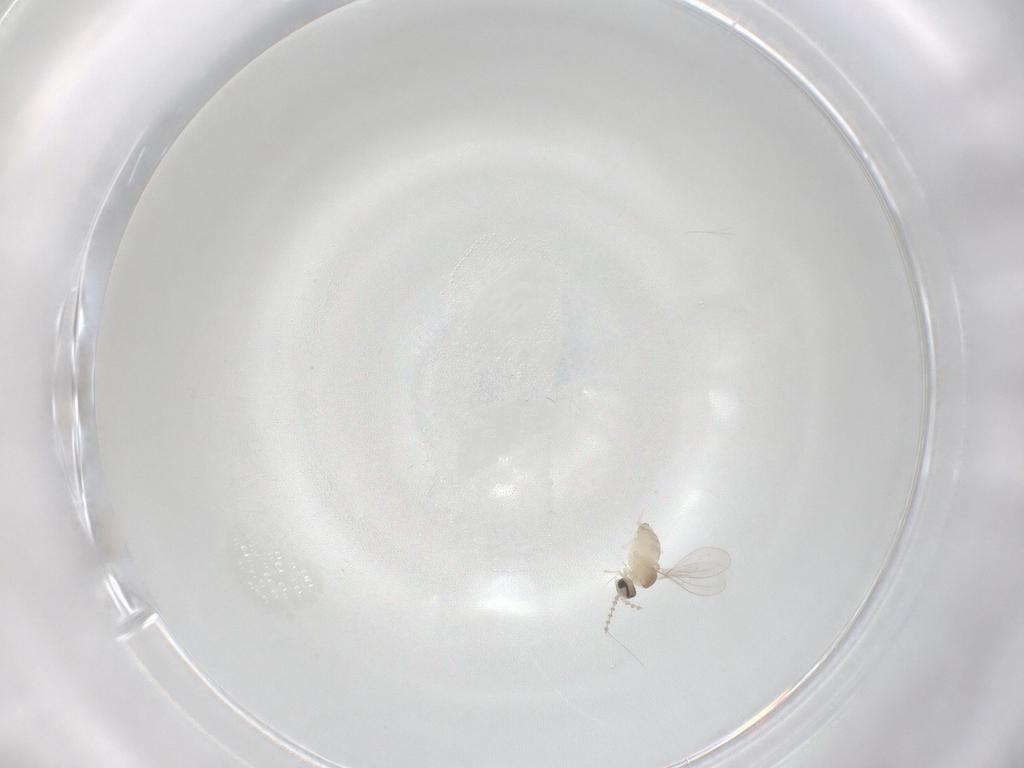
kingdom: Animalia
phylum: Arthropoda
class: Insecta
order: Diptera
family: Cecidomyiidae
